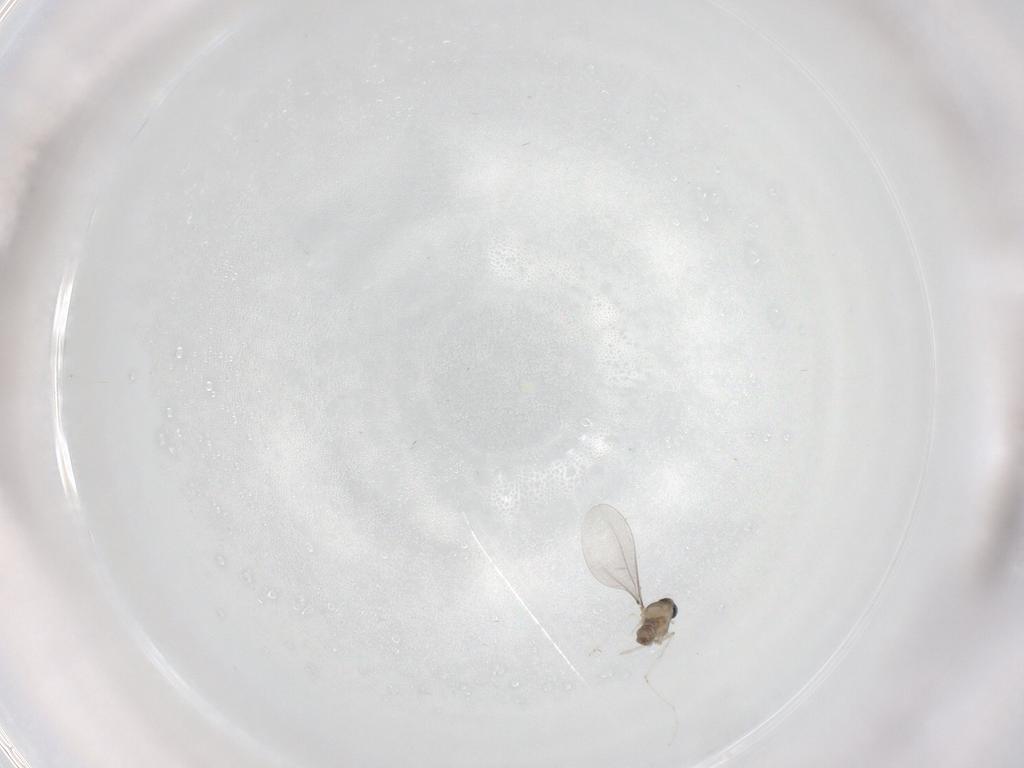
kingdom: Animalia
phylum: Arthropoda
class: Insecta
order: Diptera
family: Cecidomyiidae
